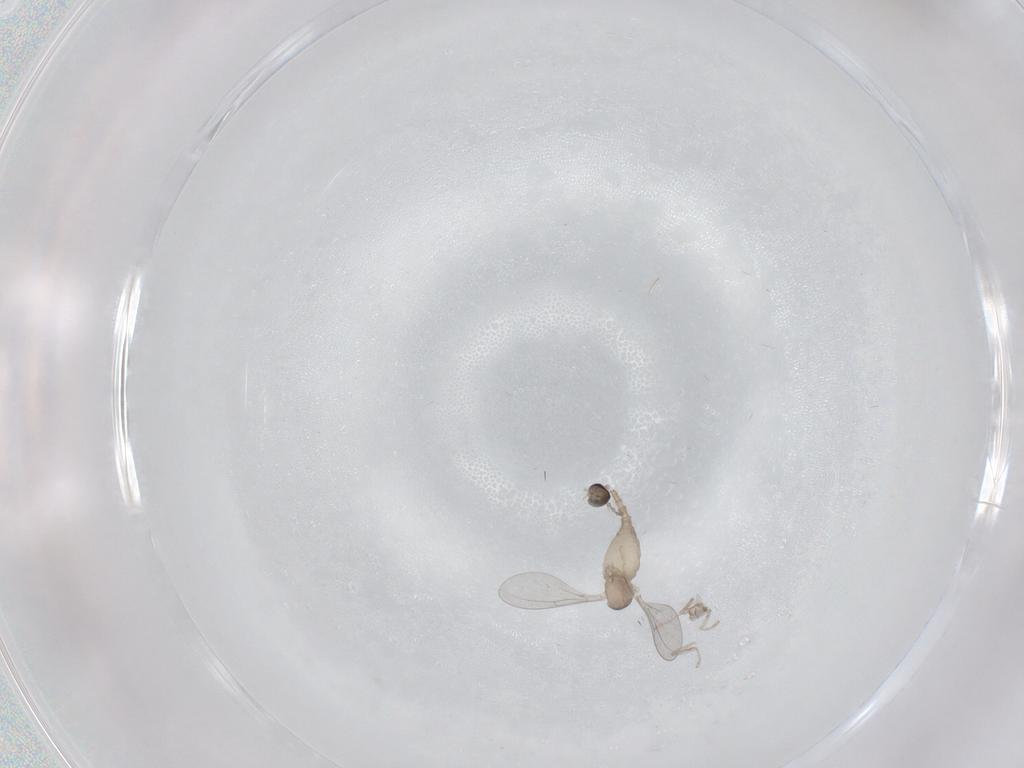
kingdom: Animalia
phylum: Arthropoda
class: Insecta
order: Diptera
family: Cecidomyiidae
